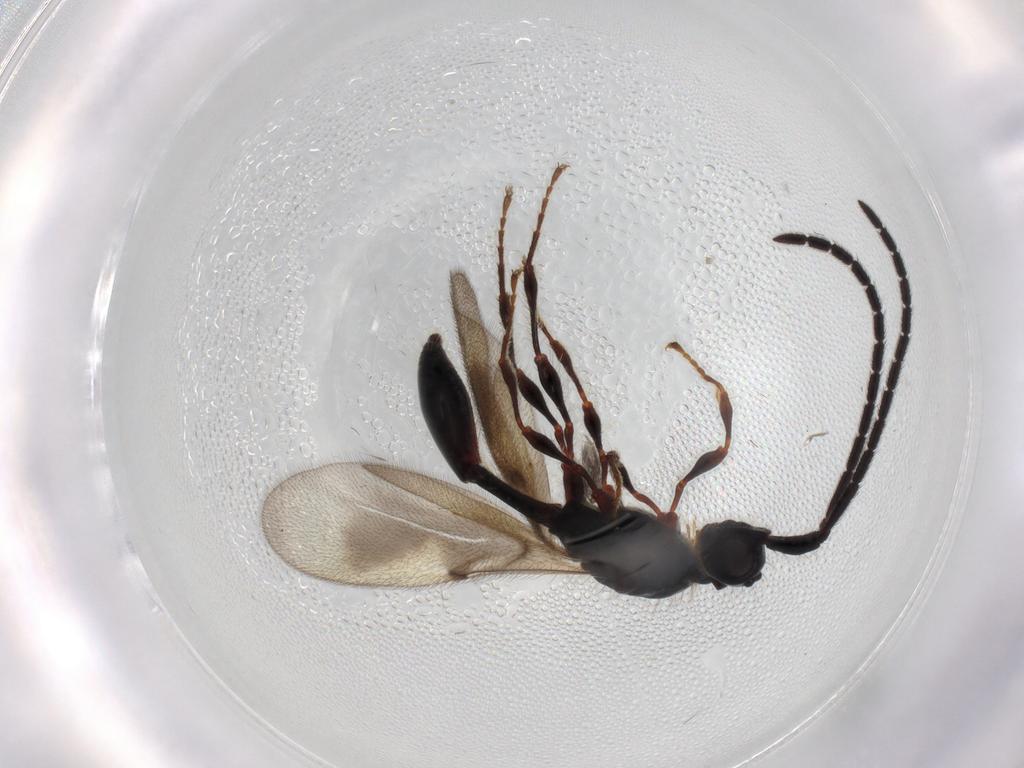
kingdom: Animalia
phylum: Arthropoda
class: Insecta
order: Hymenoptera
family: Diapriidae
